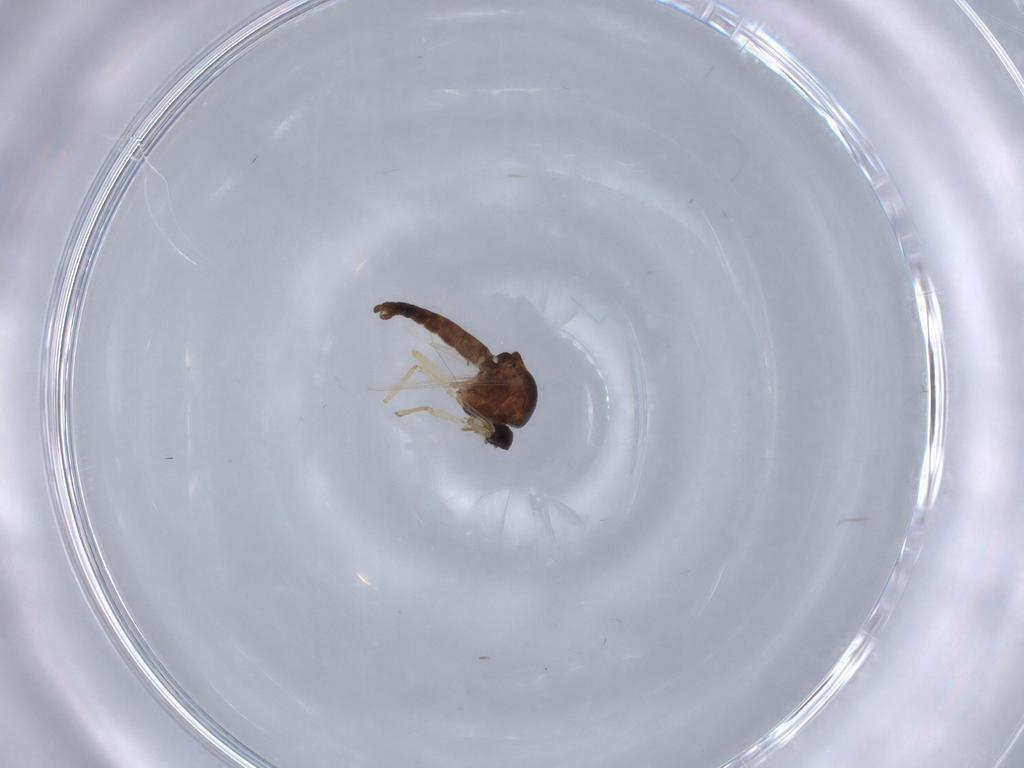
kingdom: Animalia
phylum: Arthropoda
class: Insecta
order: Diptera
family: Ceratopogonidae
